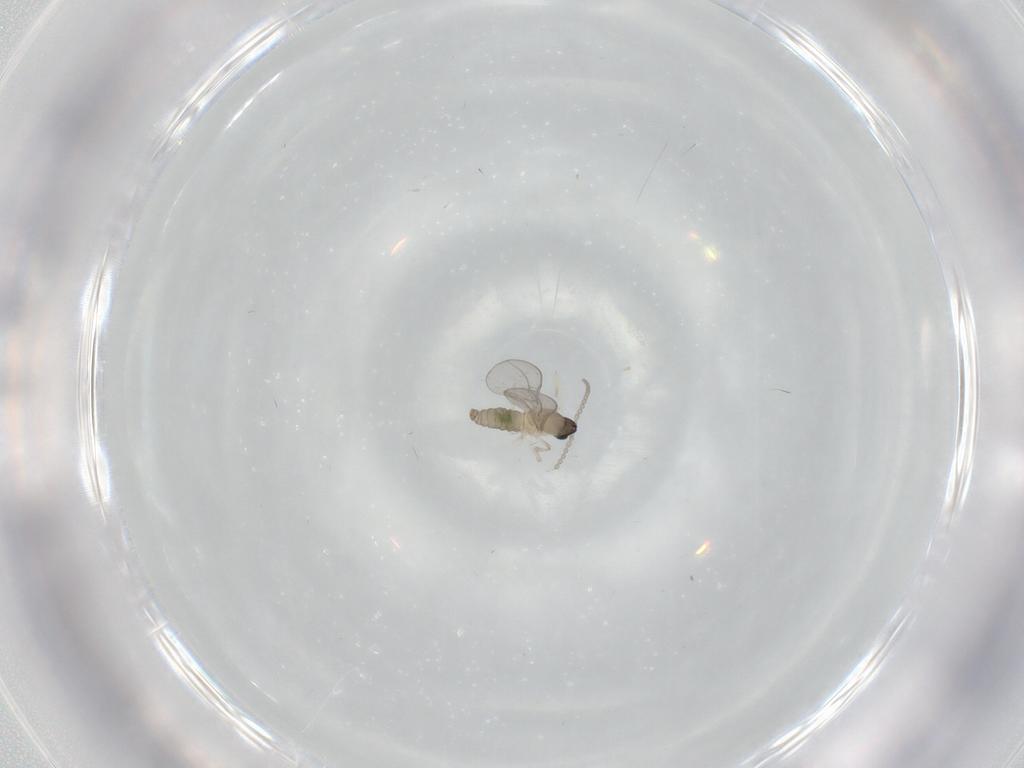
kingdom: Animalia
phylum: Arthropoda
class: Insecta
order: Diptera
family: Cecidomyiidae
